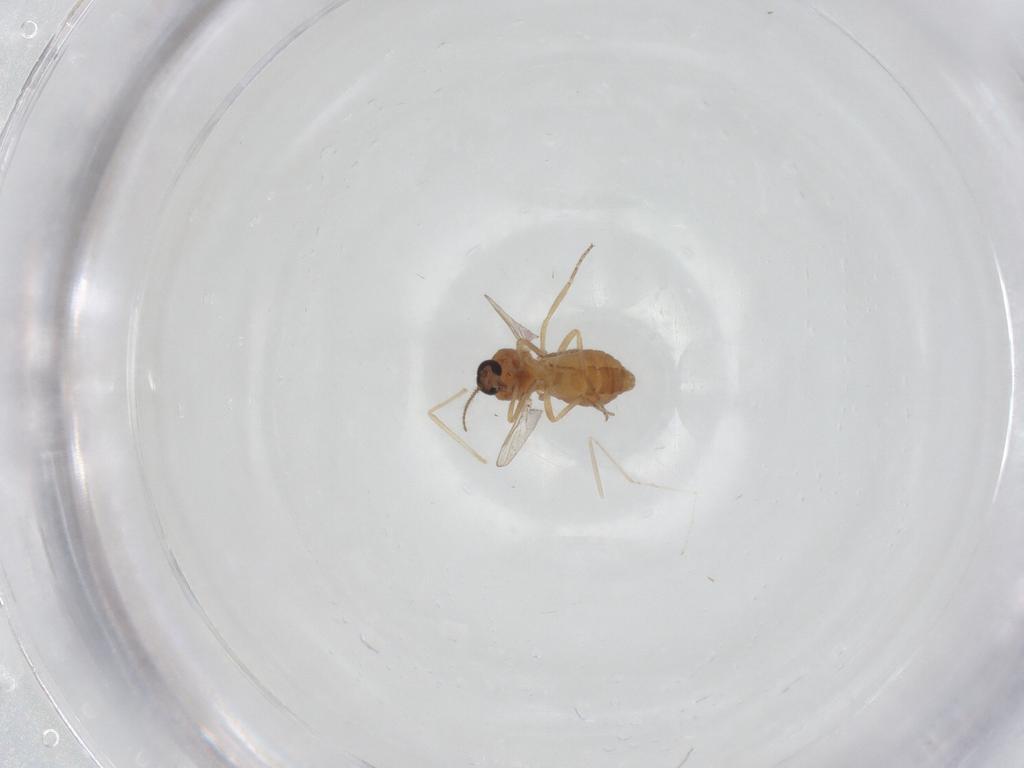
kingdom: Animalia
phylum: Arthropoda
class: Insecta
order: Diptera
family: Ceratopogonidae
